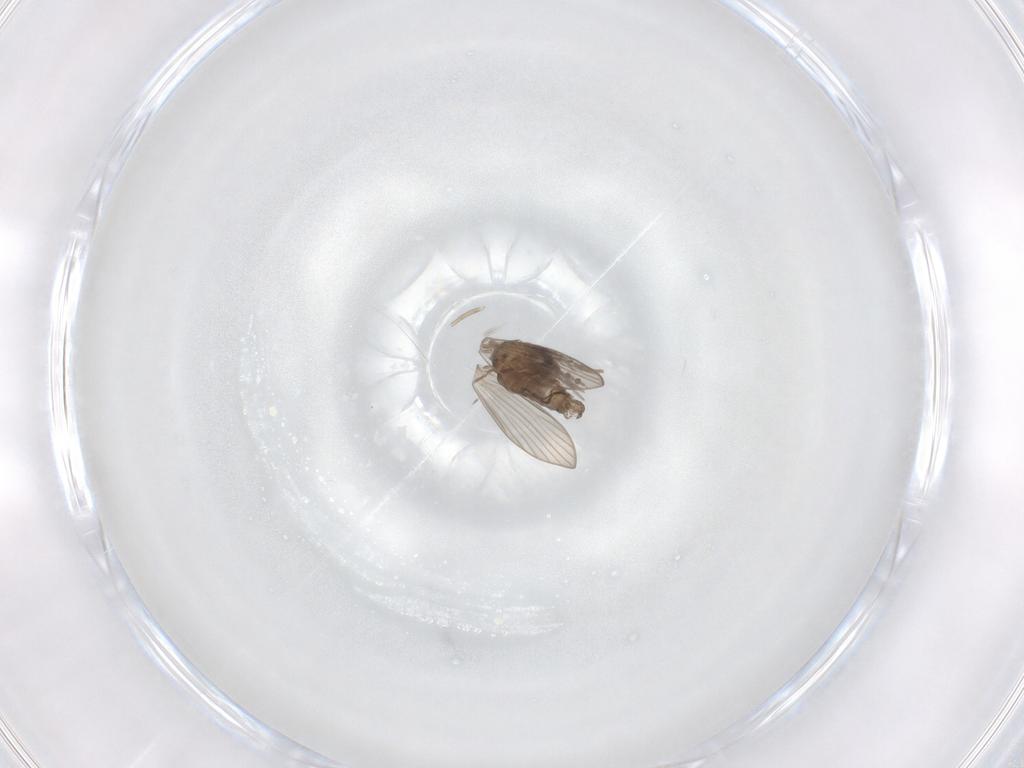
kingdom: Animalia
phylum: Arthropoda
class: Insecta
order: Diptera
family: Psychodidae
